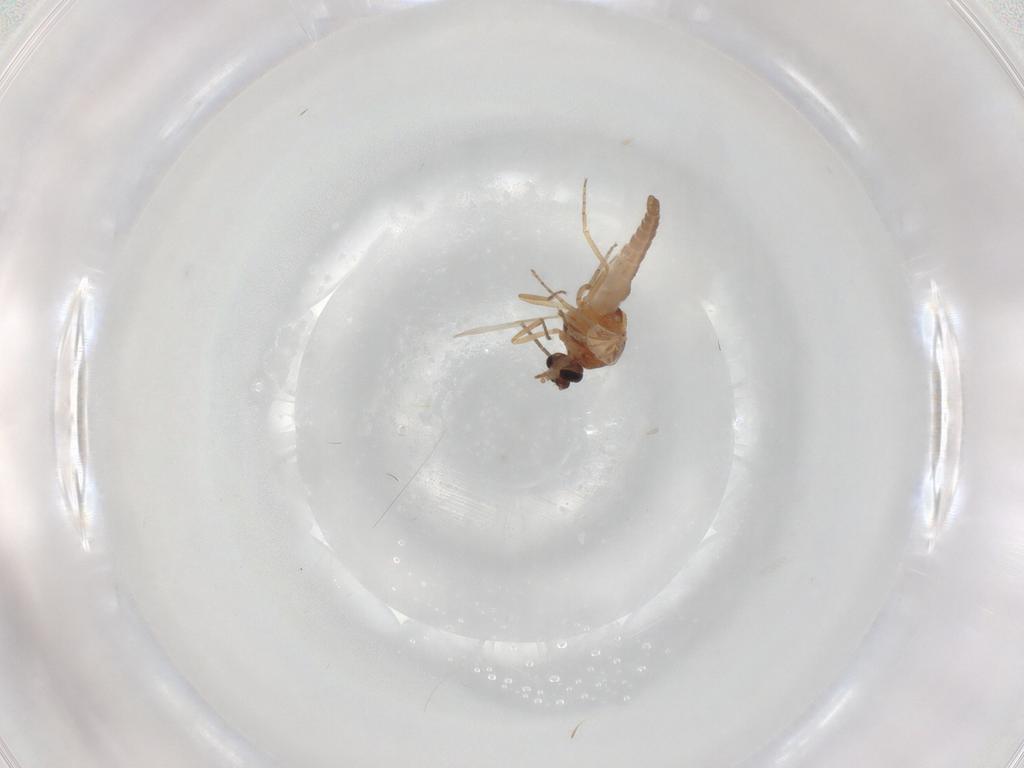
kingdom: Animalia
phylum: Arthropoda
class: Insecta
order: Diptera
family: Ceratopogonidae
